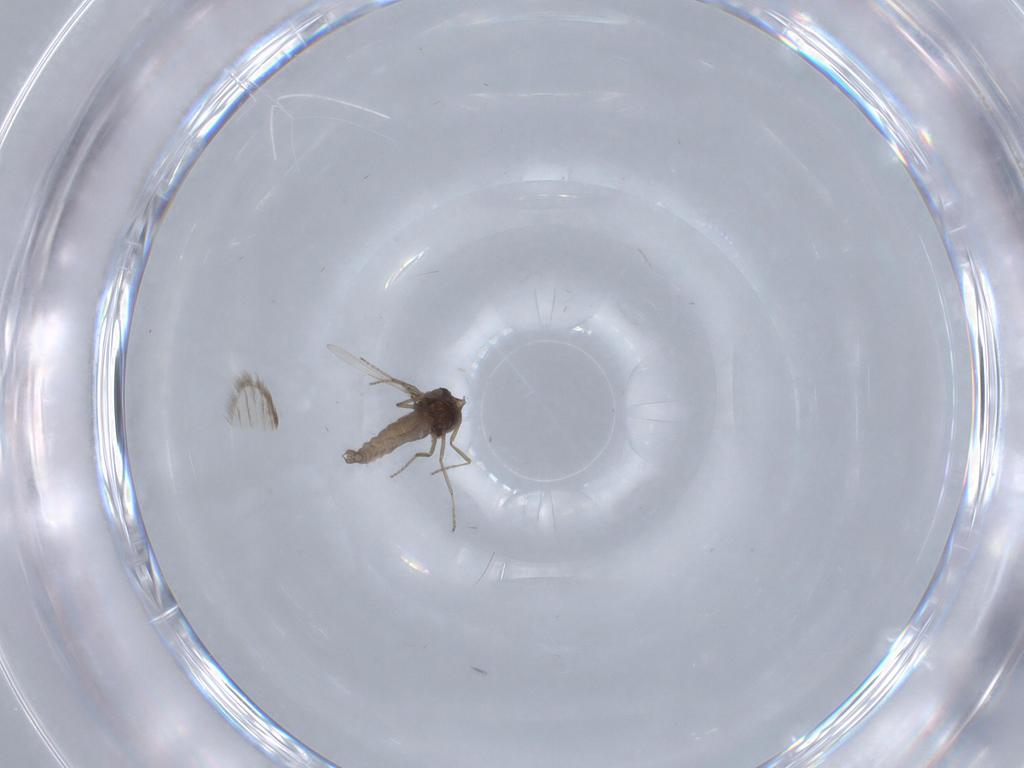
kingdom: Animalia
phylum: Arthropoda
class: Insecta
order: Diptera
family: Ceratopogonidae
